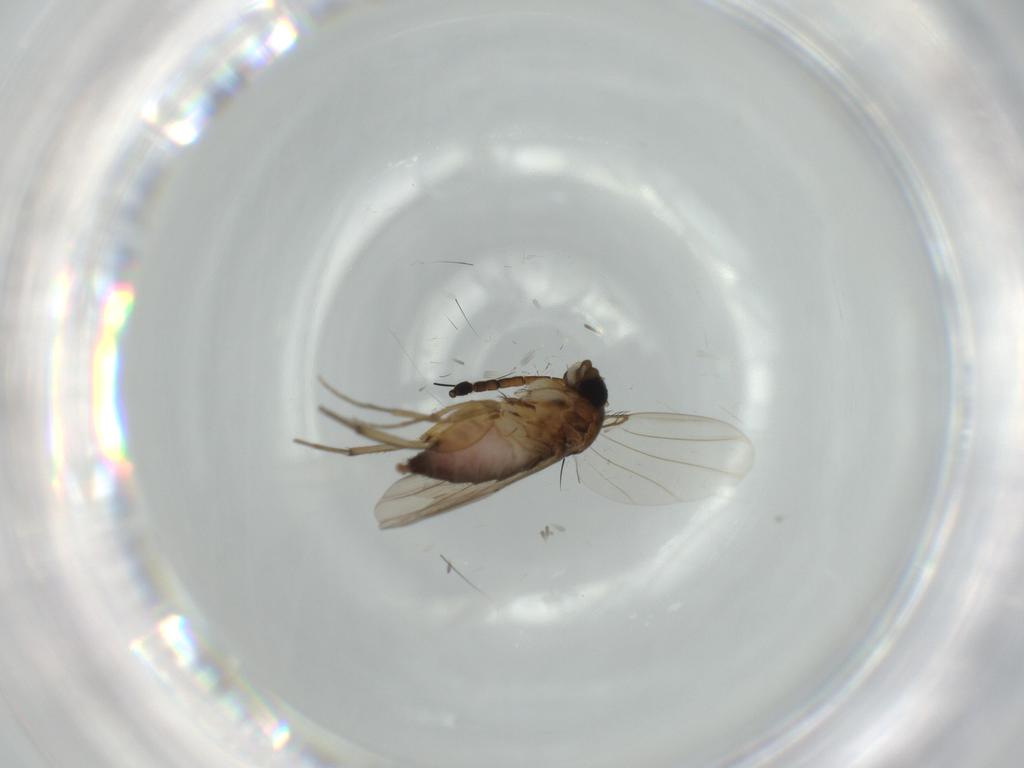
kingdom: Animalia
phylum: Arthropoda
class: Insecta
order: Diptera
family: Phoridae
